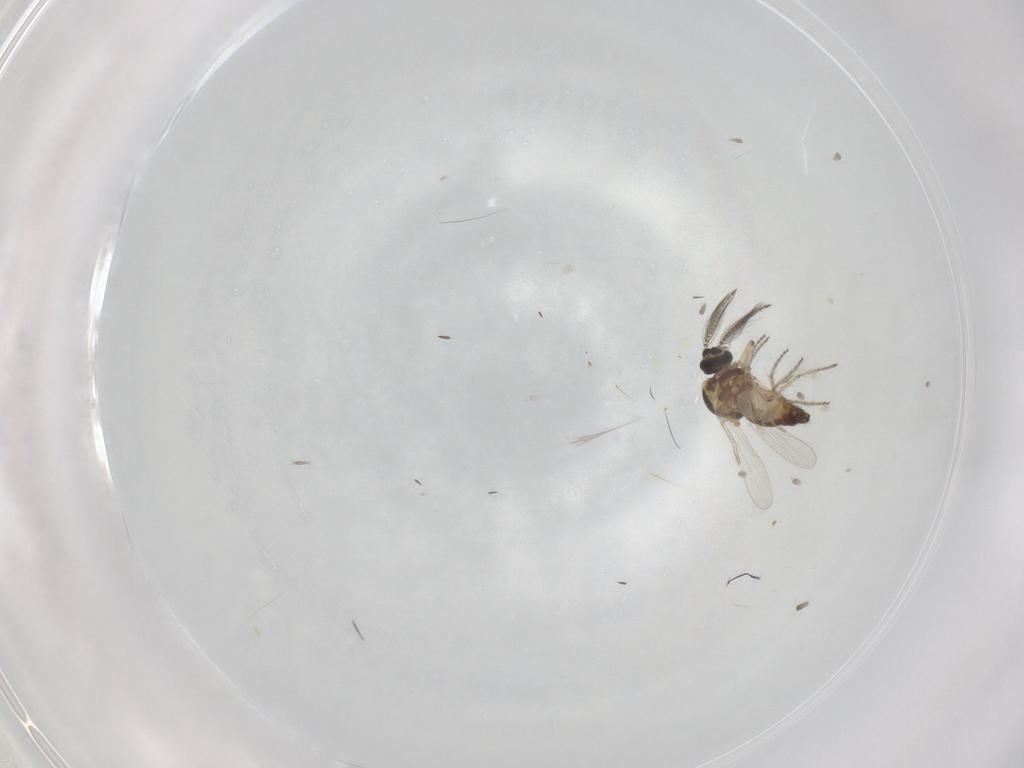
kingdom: Animalia
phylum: Arthropoda
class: Insecta
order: Diptera
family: Ceratopogonidae
